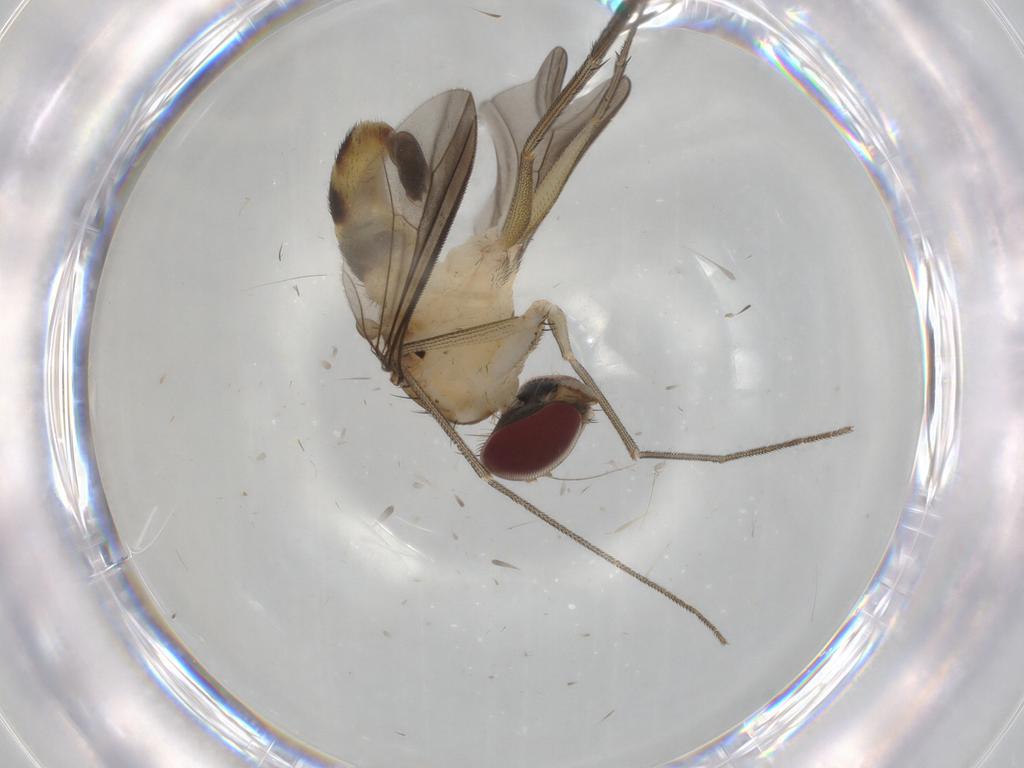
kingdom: Animalia
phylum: Arthropoda
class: Insecta
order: Diptera
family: Dolichopodidae
